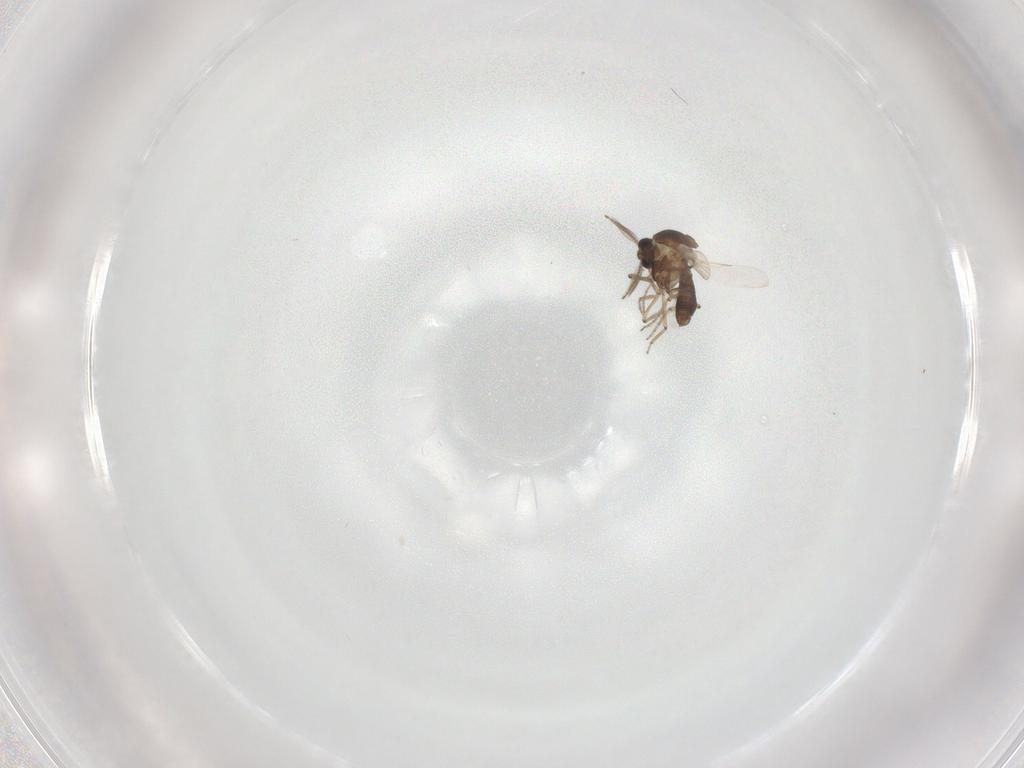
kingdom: Animalia
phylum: Arthropoda
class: Insecta
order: Diptera
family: Ceratopogonidae
